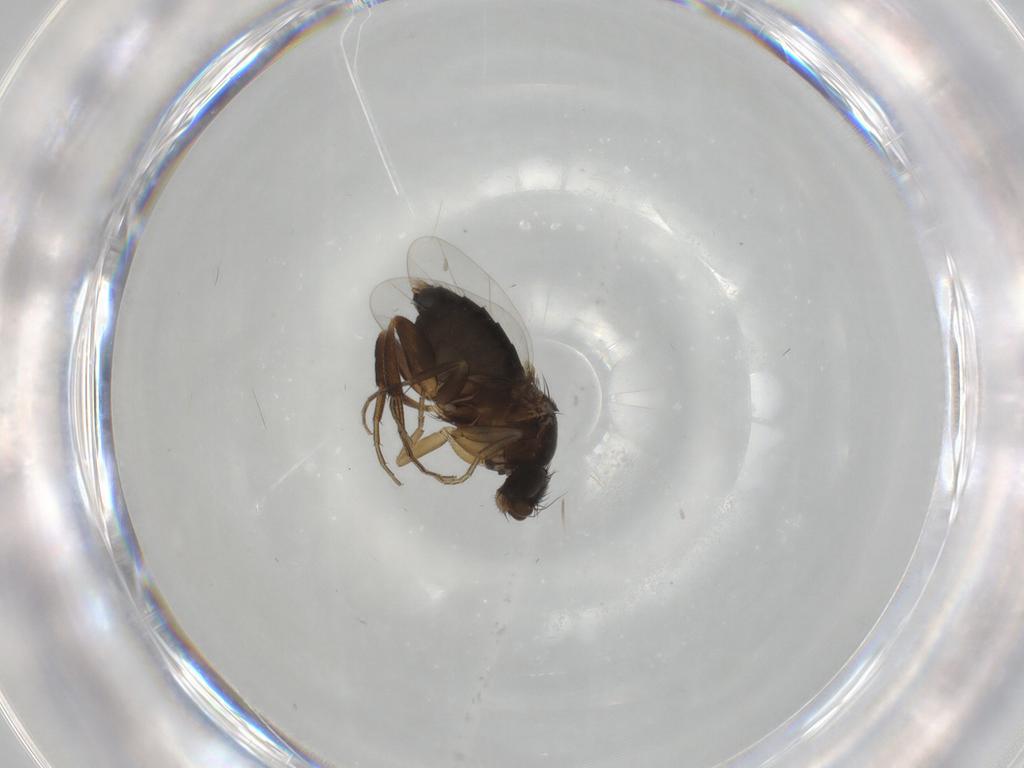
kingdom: Animalia
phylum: Arthropoda
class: Insecta
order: Diptera
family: Phoridae
